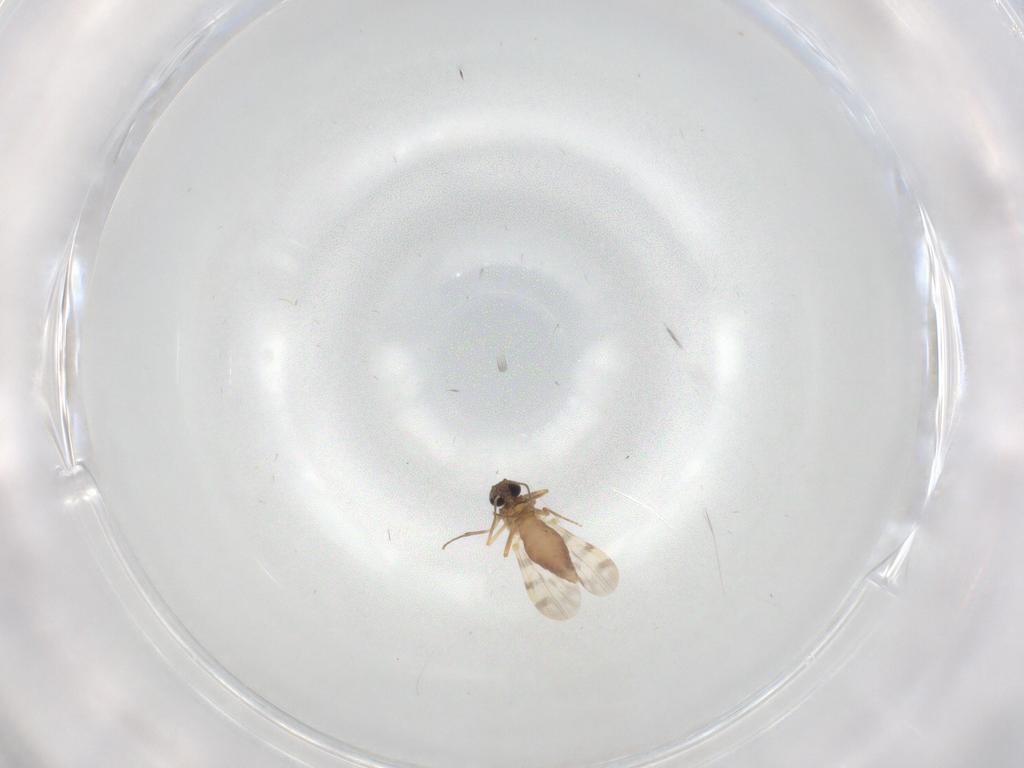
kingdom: Animalia
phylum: Arthropoda
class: Insecta
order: Diptera
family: Ceratopogonidae
